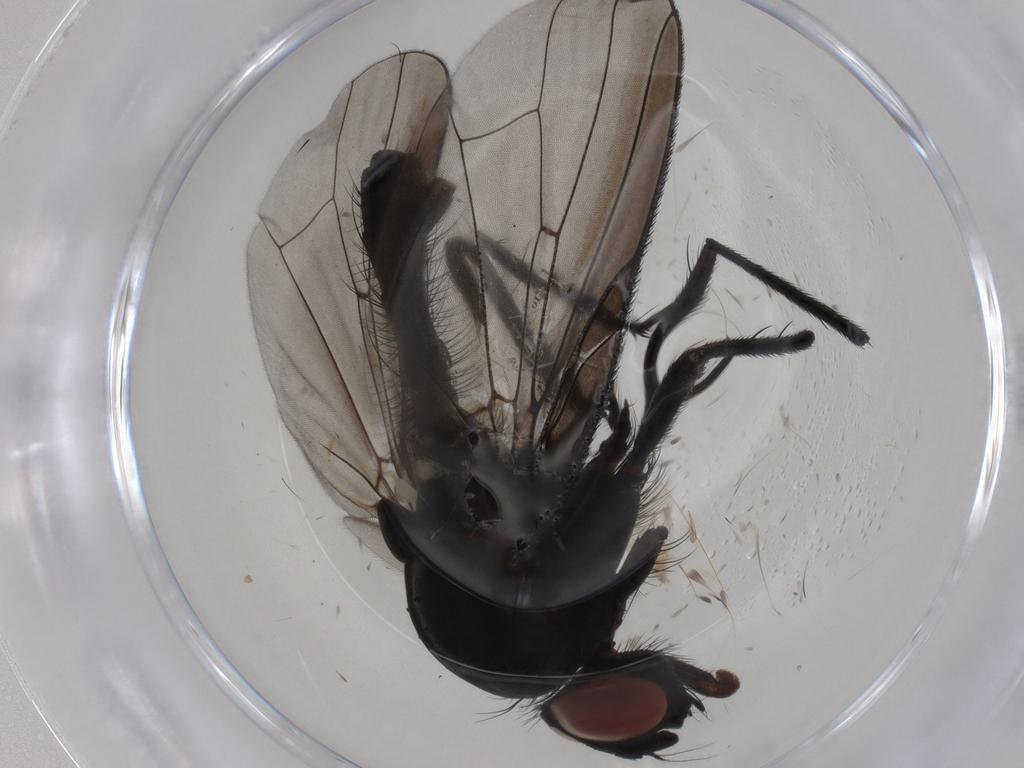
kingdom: Animalia
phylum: Arthropoda
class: Insecta
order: Diptera
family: Anthomyiidae
